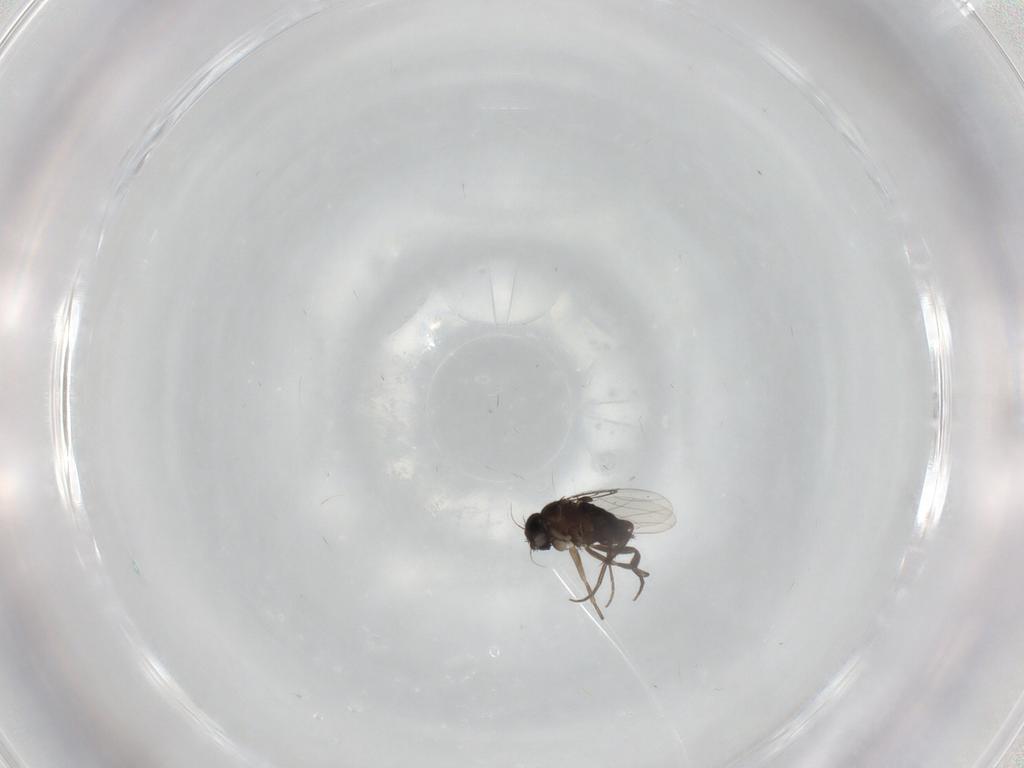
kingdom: Animalia
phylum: Arthropoda
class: Insecta
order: Diptera
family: Phoridae
